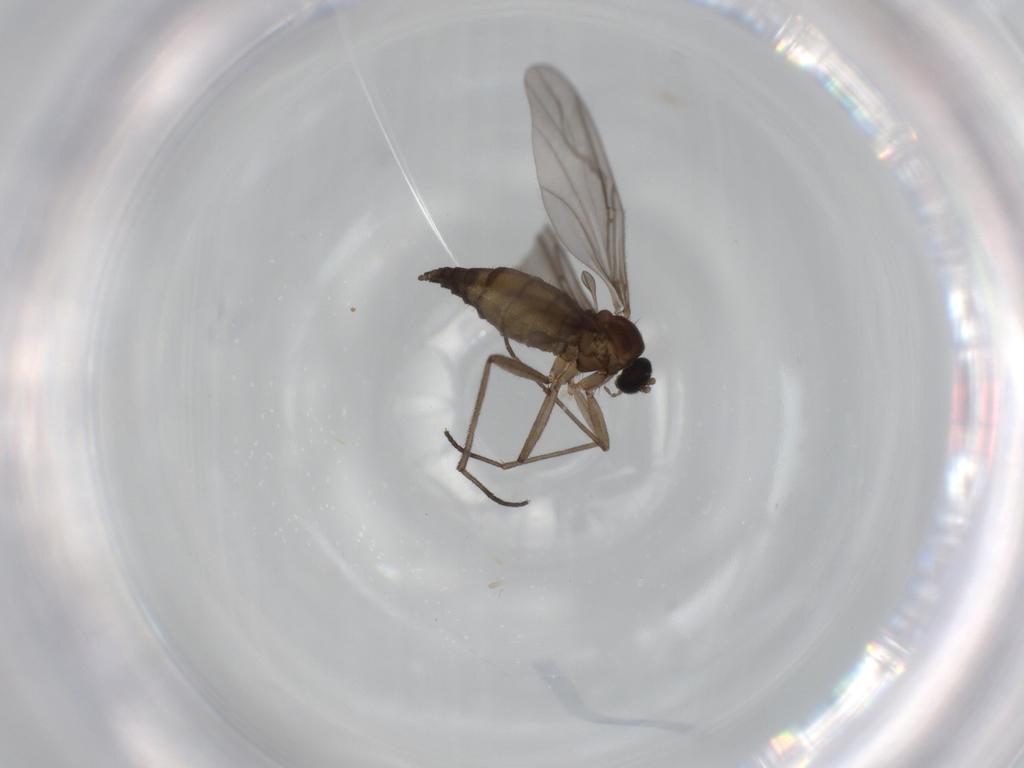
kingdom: Animalia
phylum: Arthropoda
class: Insecta
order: Diptera
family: Sciaridae
